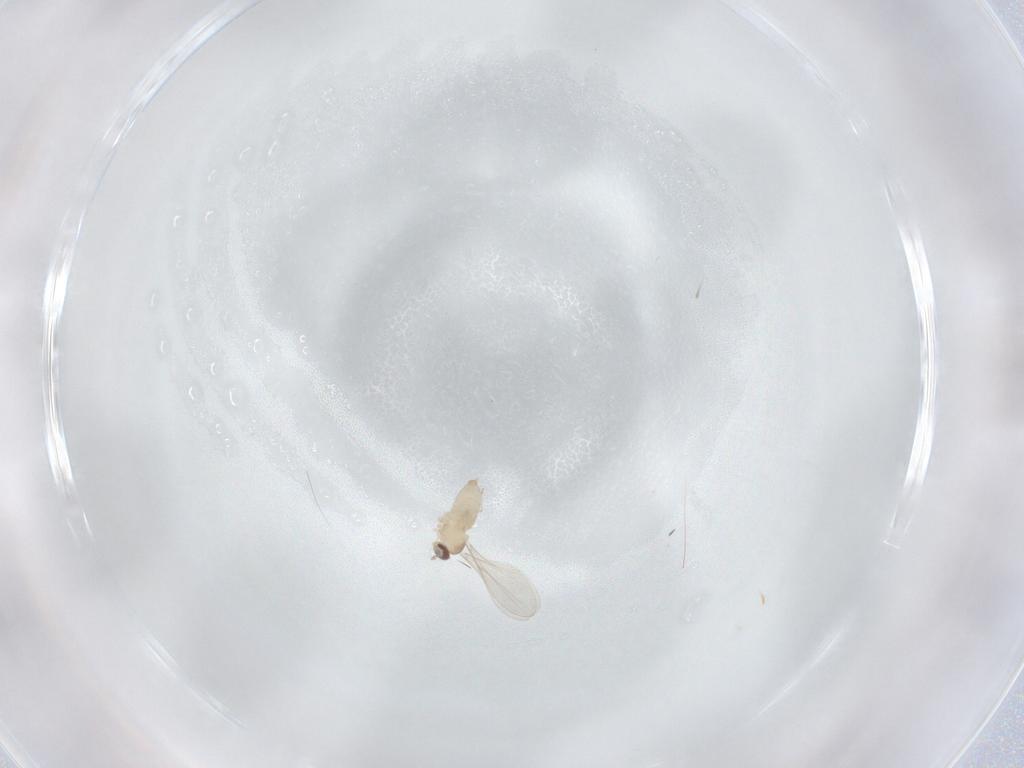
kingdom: Animalia
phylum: Arthropoda
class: Insecta
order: Diptera
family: Cecidomyiidae
